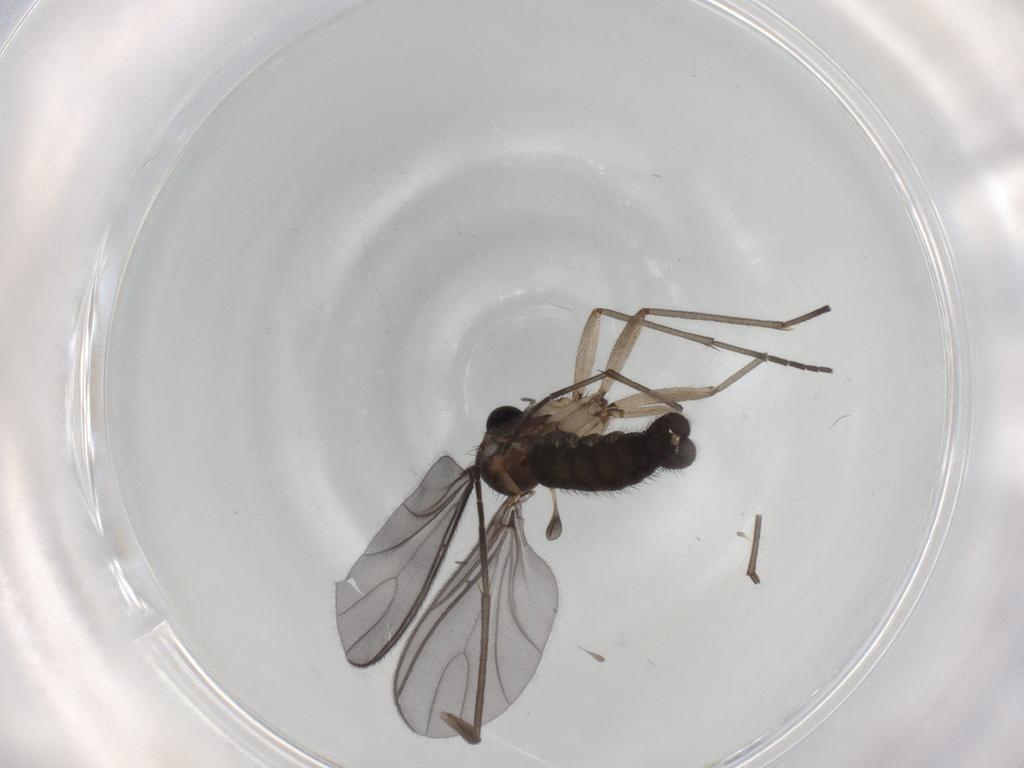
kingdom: Animalia
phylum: Arthropoda
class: Insecta
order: Diptera
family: Sciaridae
